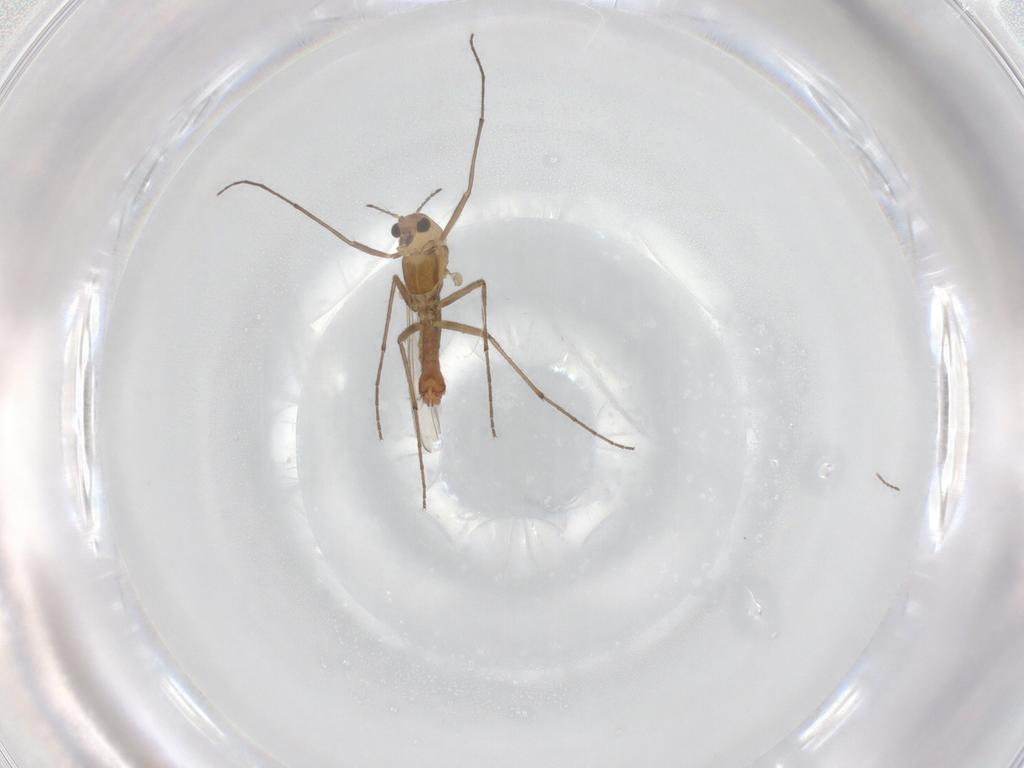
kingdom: Animalia
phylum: Arthropoda
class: Insecta
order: Diptera
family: Chironomidae
